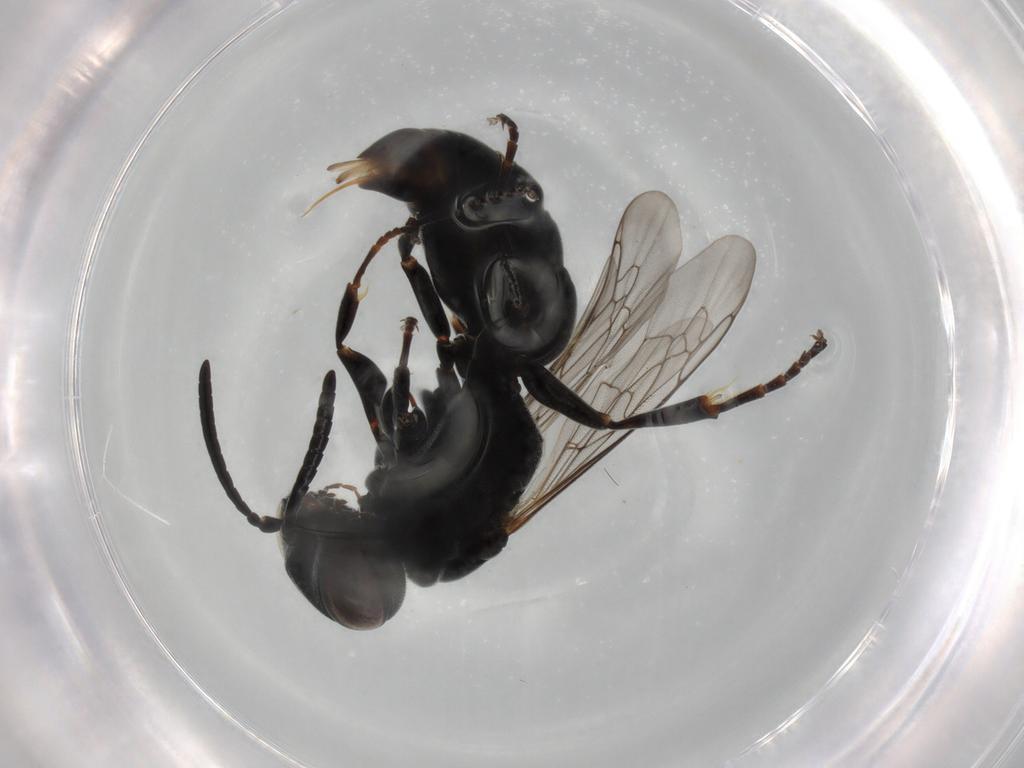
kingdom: Animalia
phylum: Arthropoda
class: Insecta
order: Hymenoptera
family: Crabronidae
